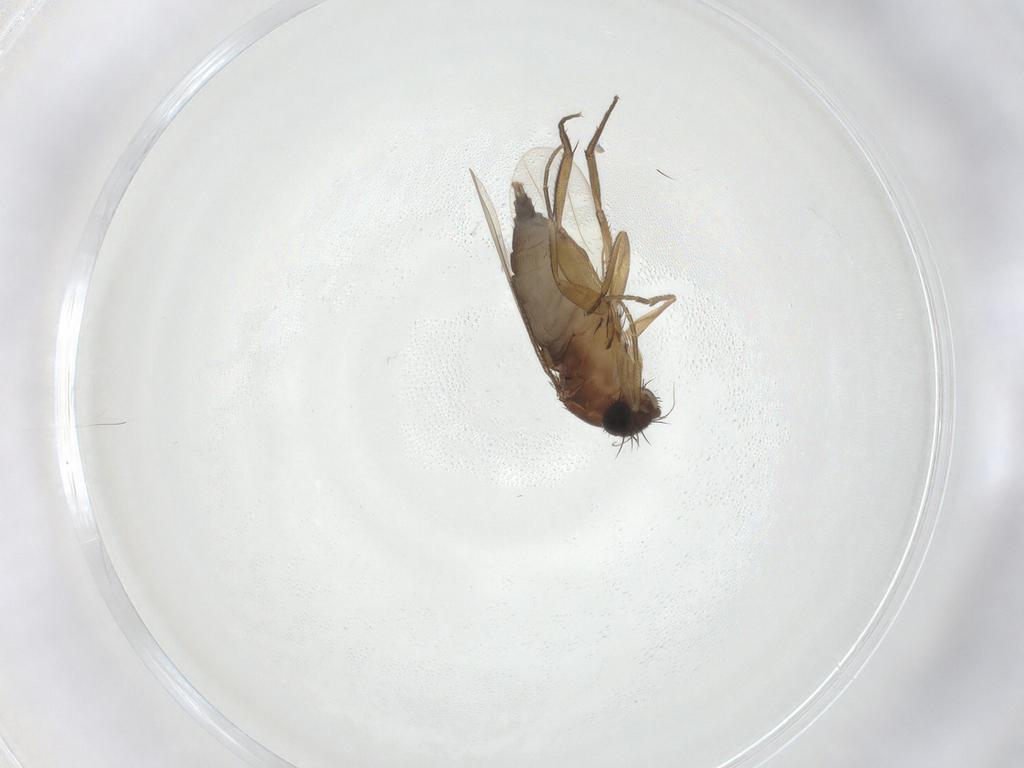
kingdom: Animalia
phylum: Arthropoda
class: Insecta
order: Diptera
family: Phoridae
